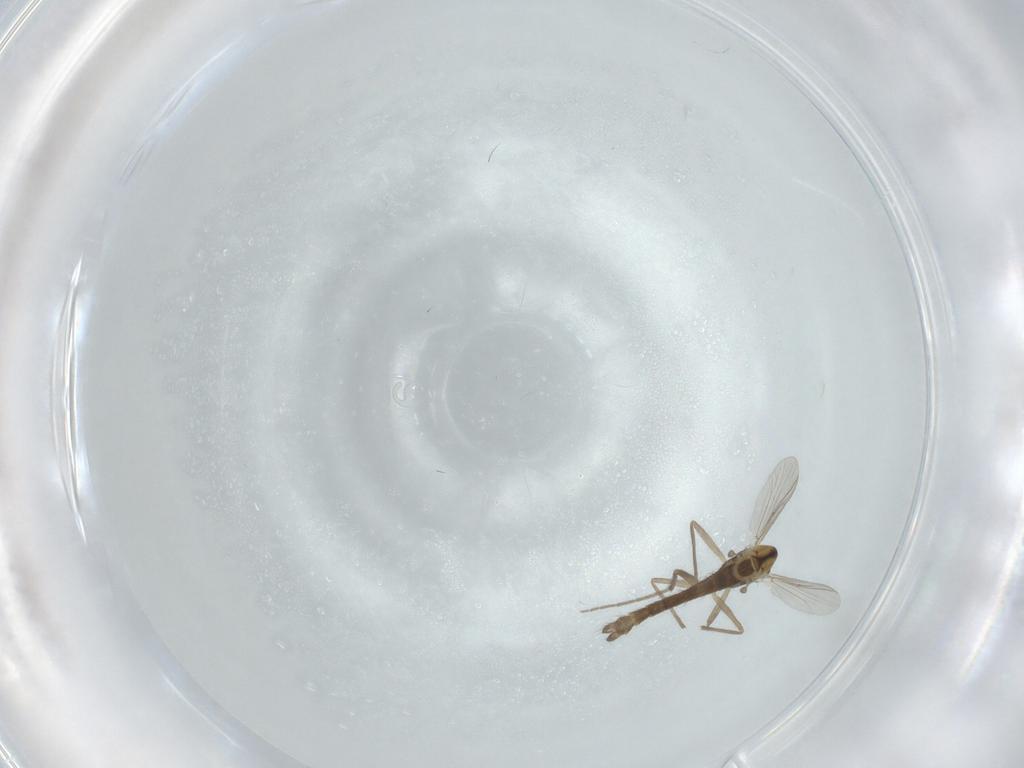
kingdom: Animalia
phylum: Arthropoda
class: Insecta
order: Diptera
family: Chironomidae
